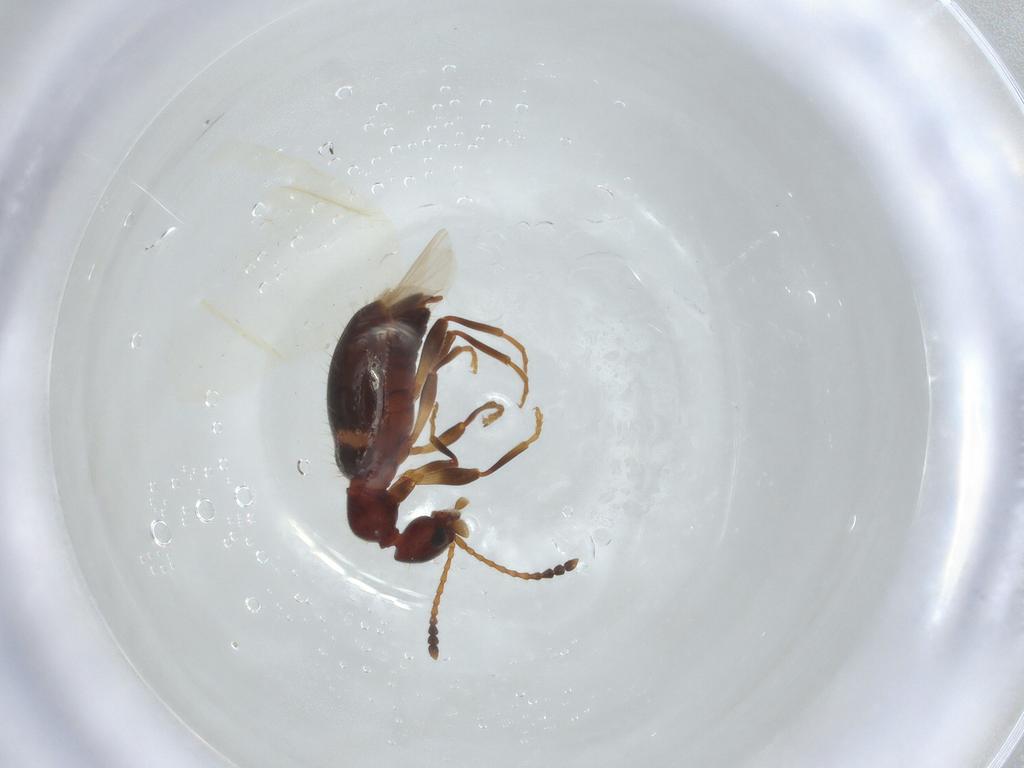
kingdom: Animalia
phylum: Arthropoda
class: Insecta
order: Coleoptera
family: Anthicidae
